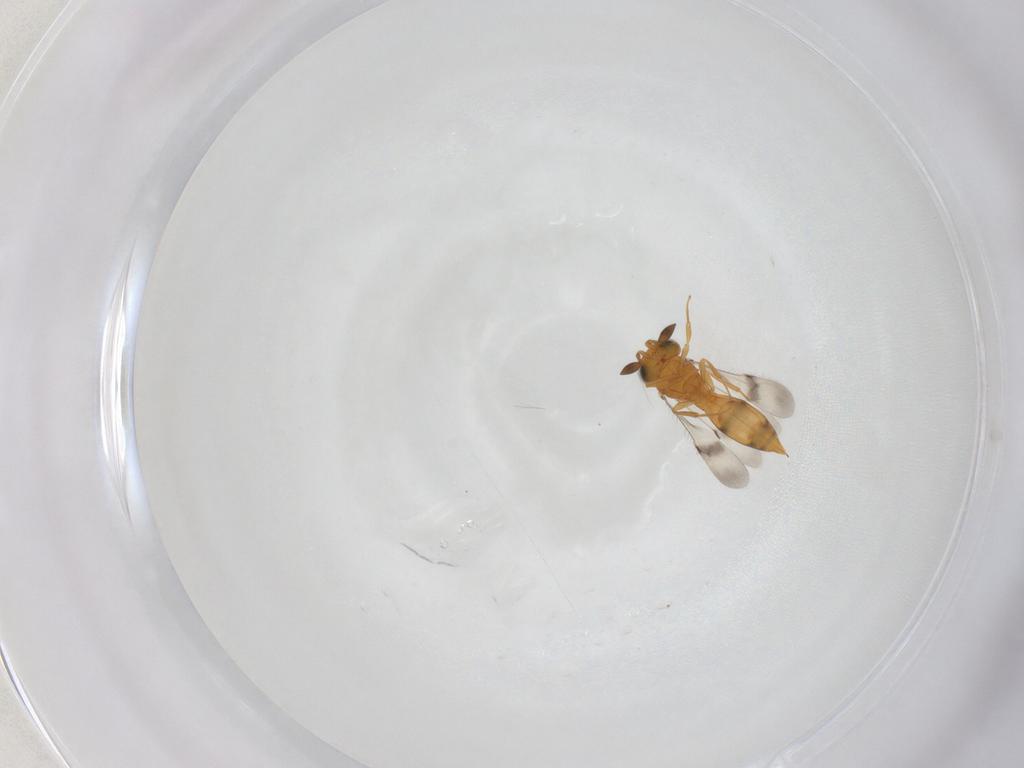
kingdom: Animalia
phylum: Arthropoda
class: Insecta
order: Hymenoptera
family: Scelionidae
